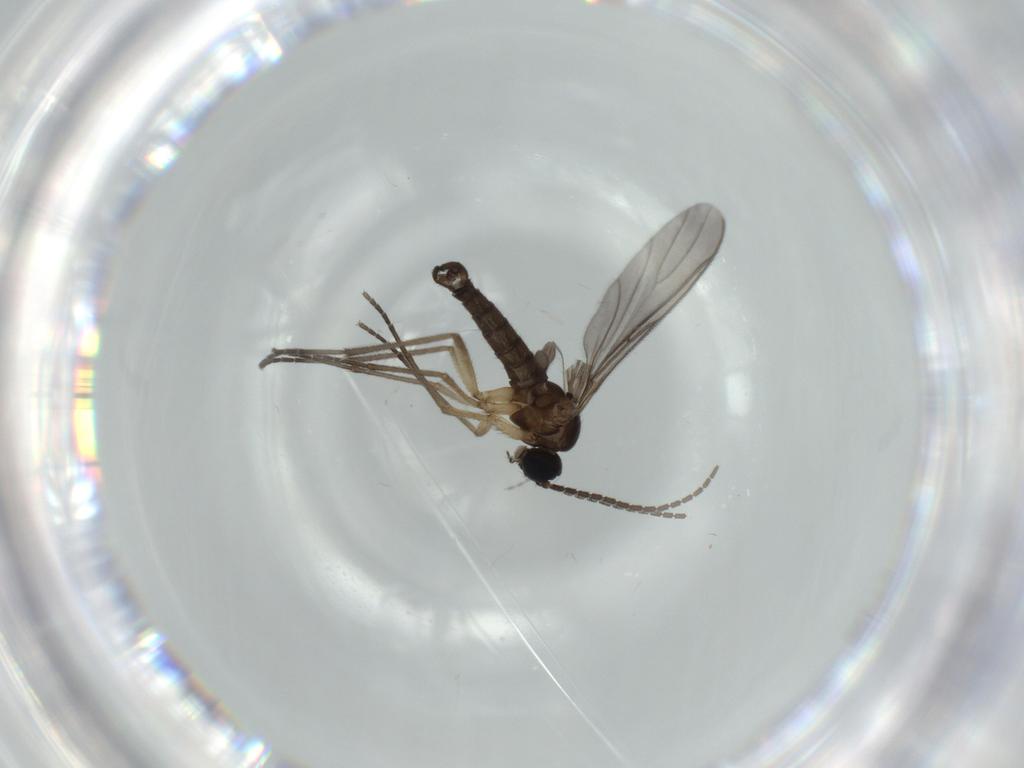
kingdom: Animalia
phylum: Arthropoda
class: Insecta
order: Diptera
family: Sciaridae
